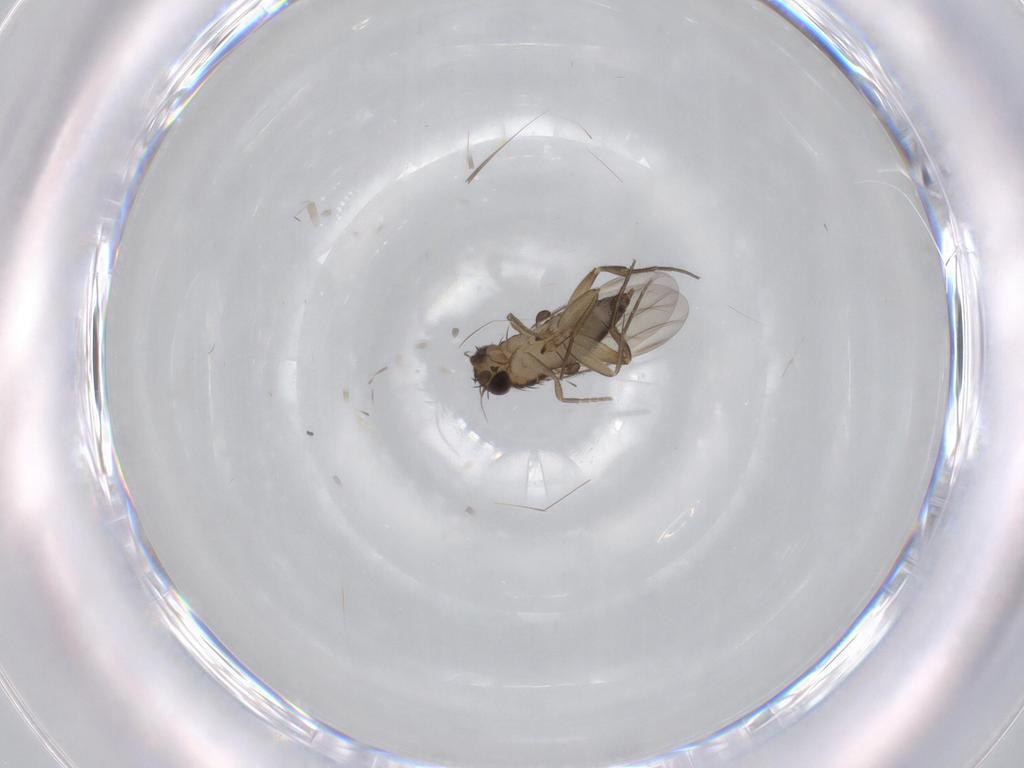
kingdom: Animalia
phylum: Arthropoda
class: Insecta
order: Diptera
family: Phoridae
